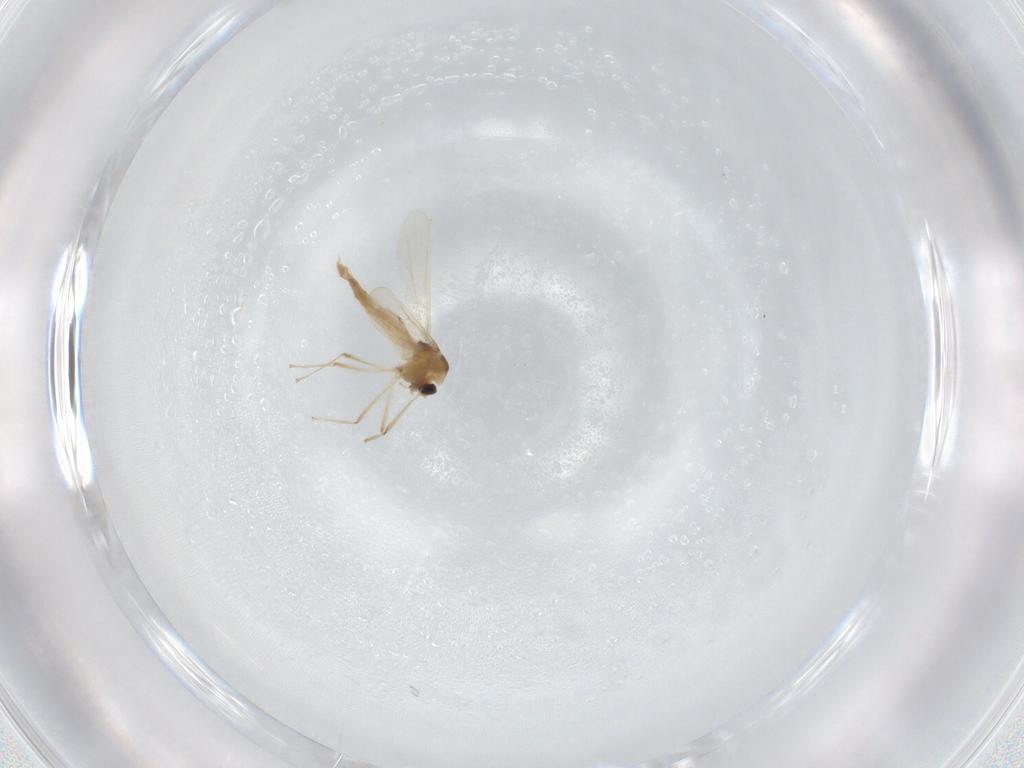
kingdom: Animalia
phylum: Arthropoda
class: Insecta
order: Diptera
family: Chironomidae
